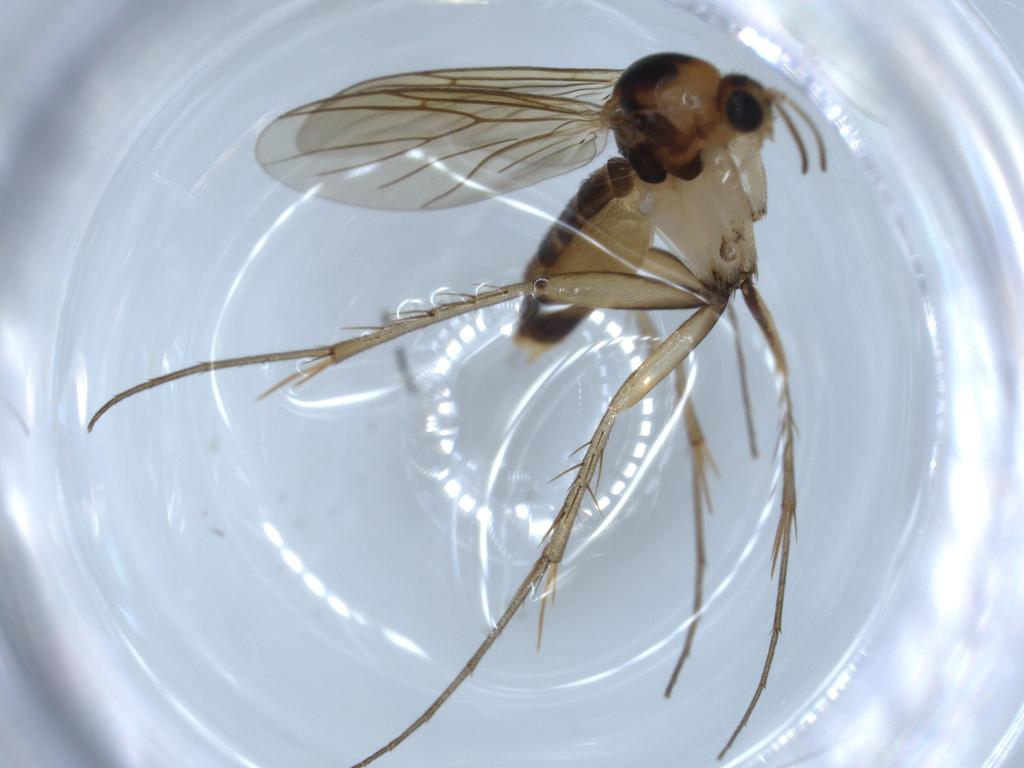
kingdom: Animalia
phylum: Arthropoda
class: Insecta
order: Diptera
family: Mycetophilidae
